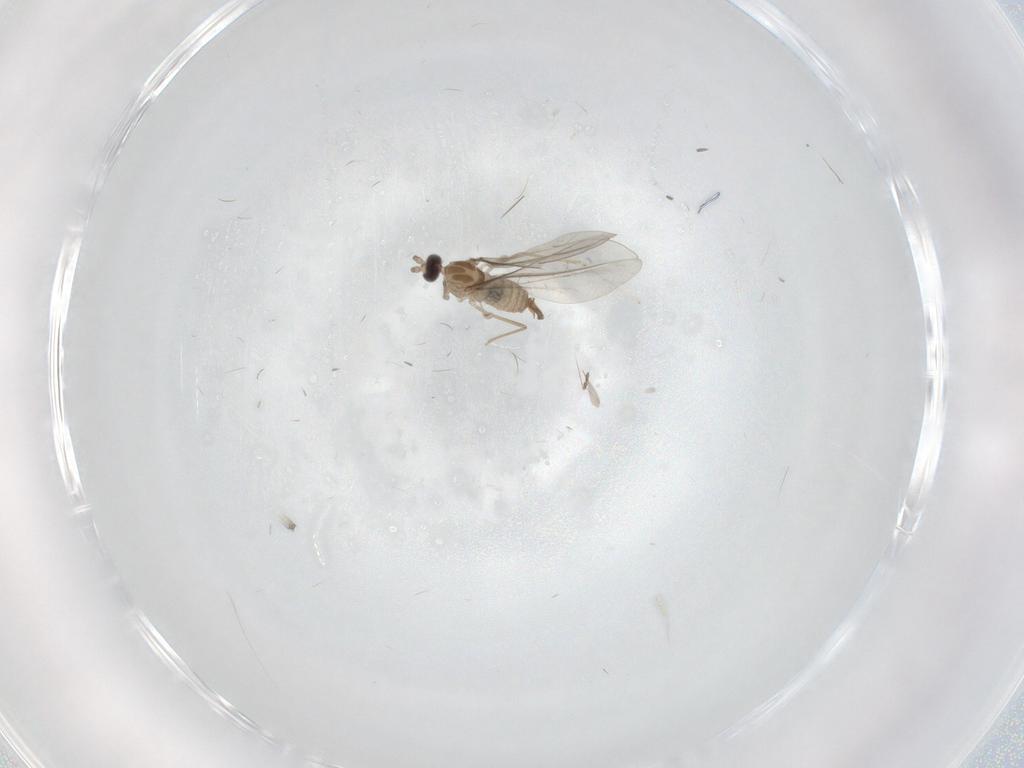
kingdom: Animalia
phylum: Arthropoda
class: Insecta
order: Diptera
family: Cecidomyiidae
